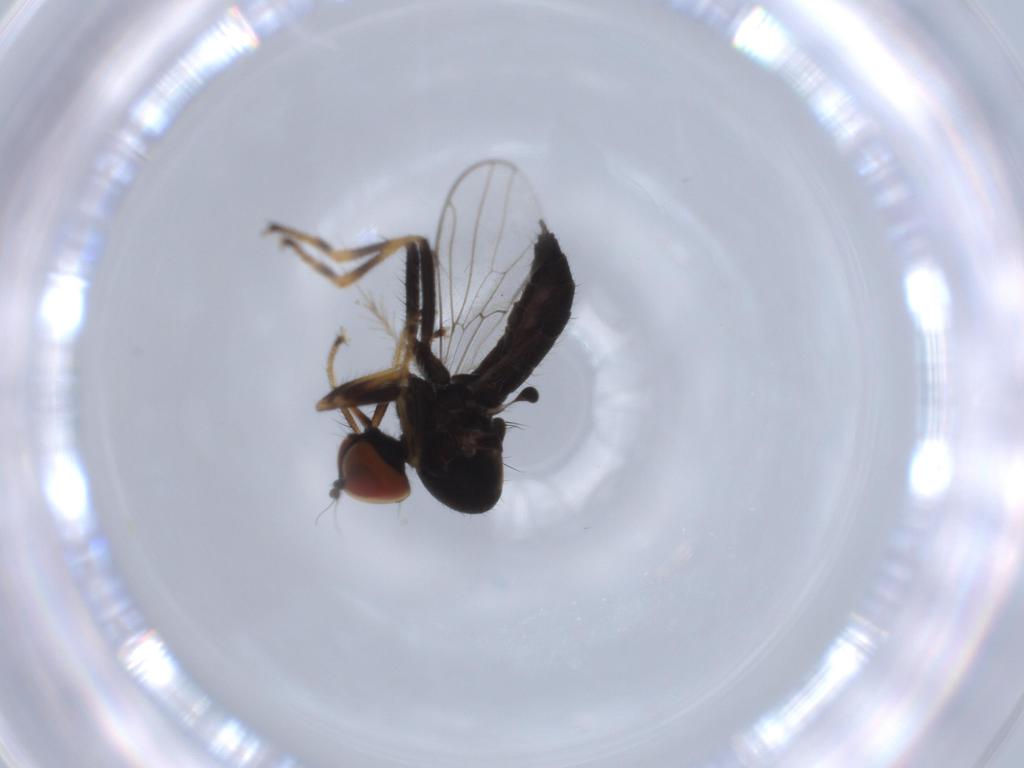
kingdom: Animalia
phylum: Arthropoda
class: Insecta
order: Diptera
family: Hybotidae
